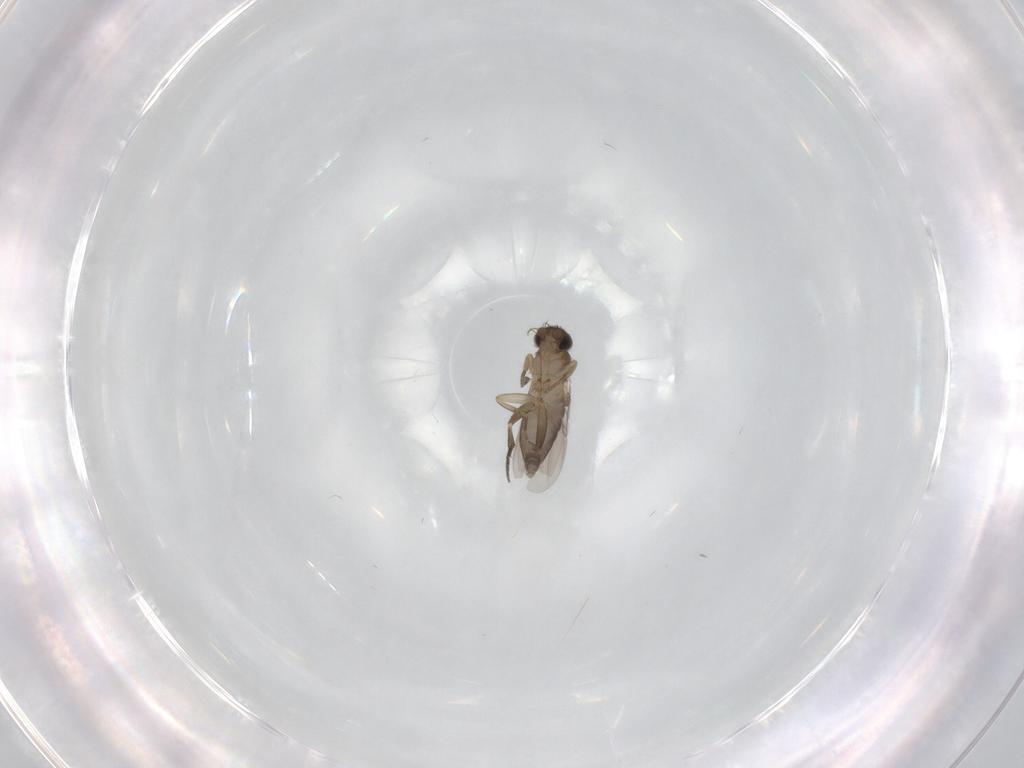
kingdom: Animalia
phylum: Arthropoda
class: Insecta
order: Diptera
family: Phoridae
